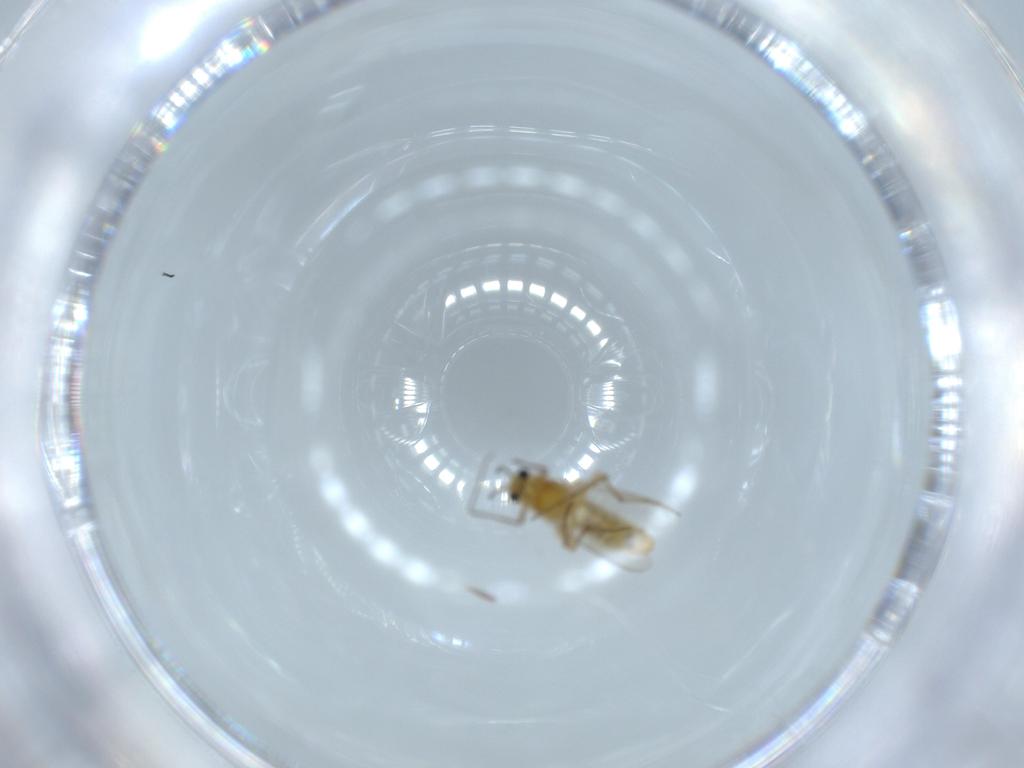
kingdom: Animalia
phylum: Arthropoda
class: Insecta
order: Diptera
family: Chironomidae
